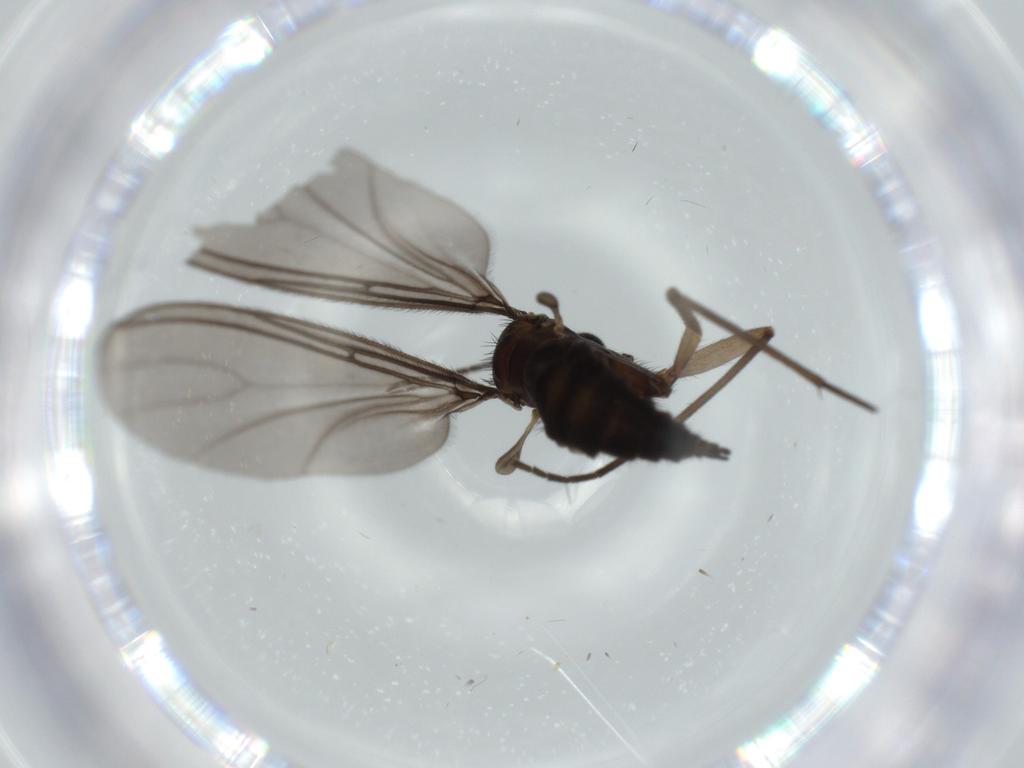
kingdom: Animalia
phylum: Arthropoda
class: Insecta
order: Diptera
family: Sciaridae
